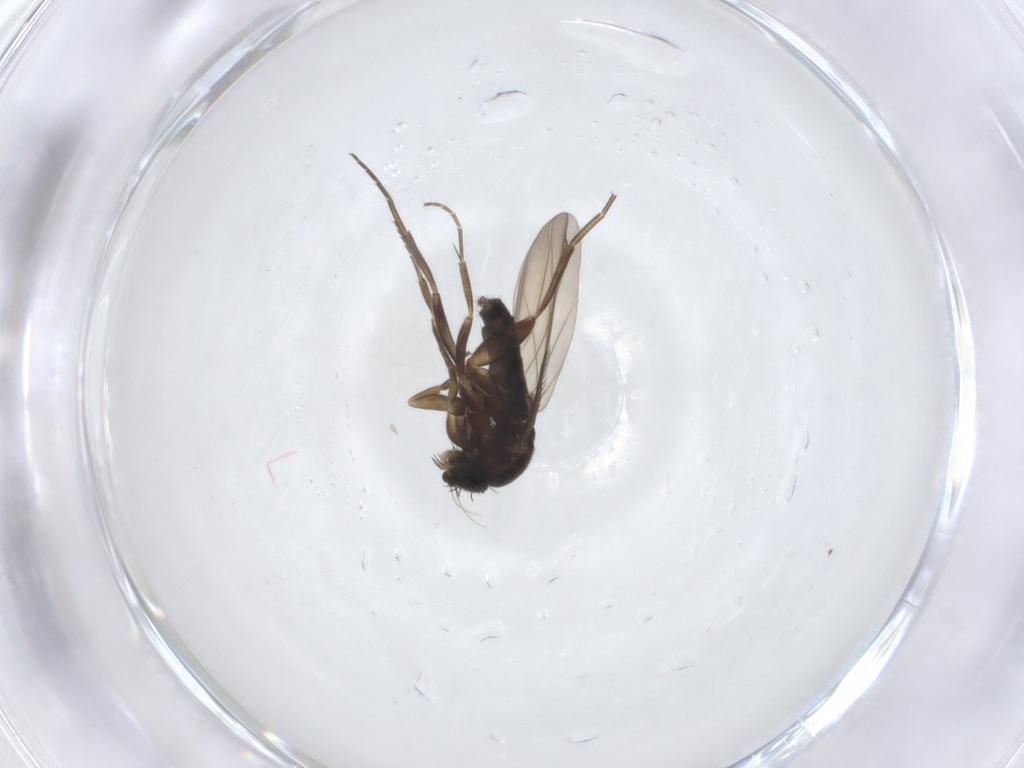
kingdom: Animalia
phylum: Arthropoda
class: Insecta
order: Diptera
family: Phoridae
